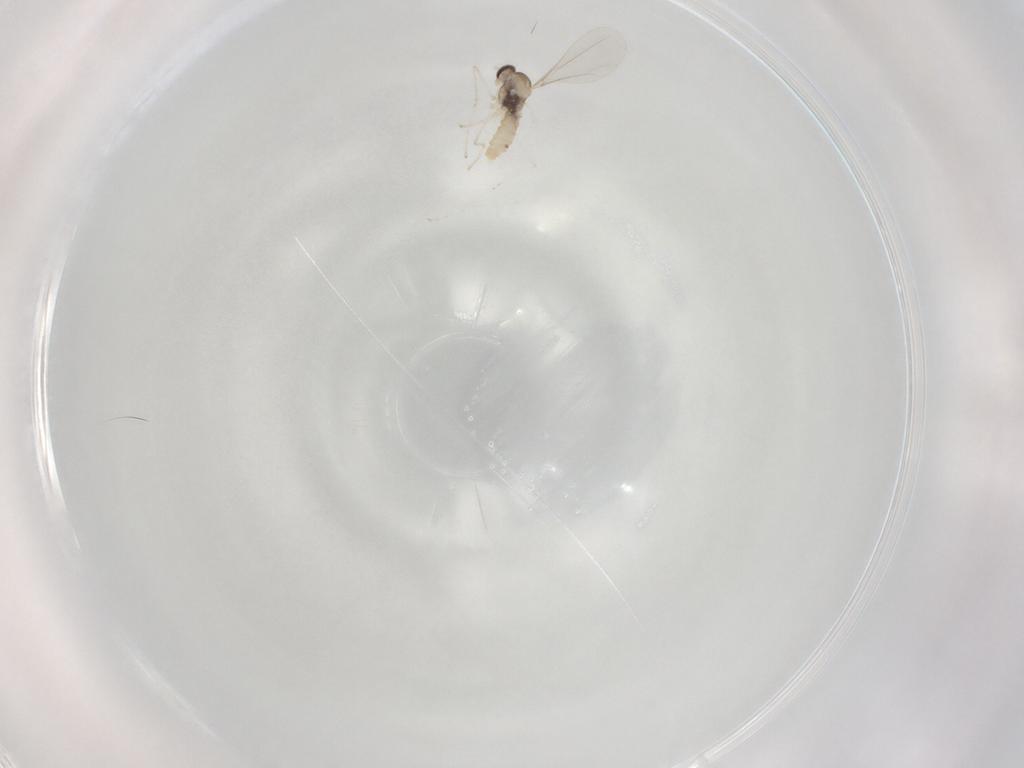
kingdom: Animalia
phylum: Arthropoda
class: Insecta
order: Diptera
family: Cecidomyiidae
